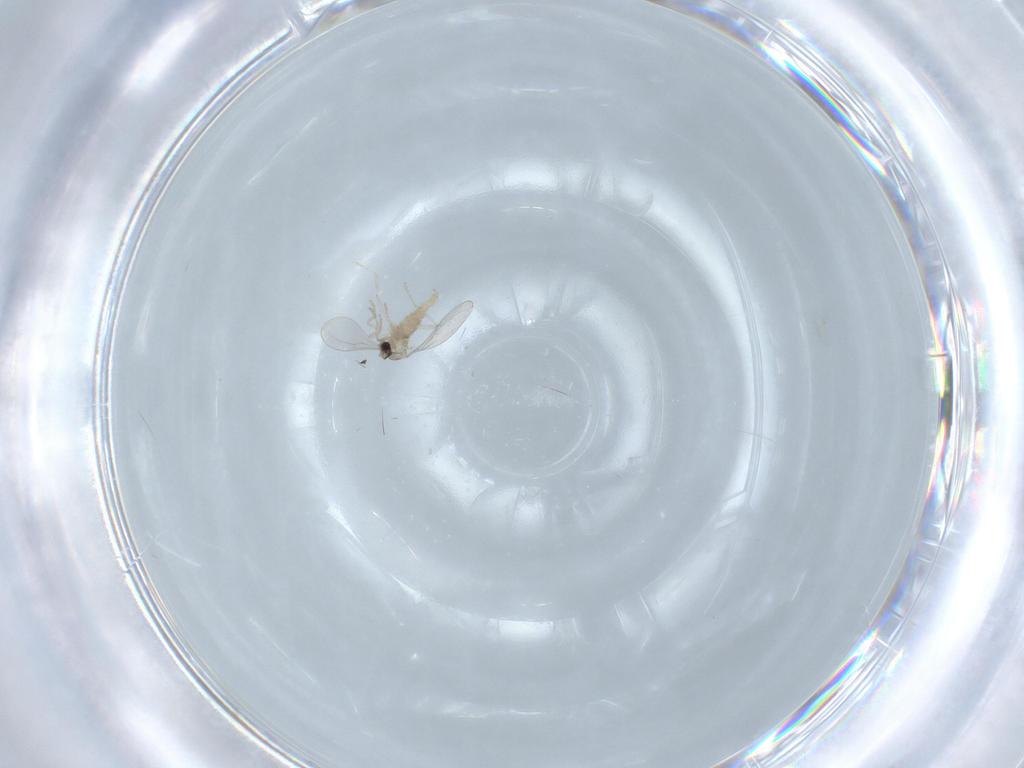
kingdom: Animalia
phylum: Arthropoda
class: Insecta
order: Diptera
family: Cecidomyiidae
